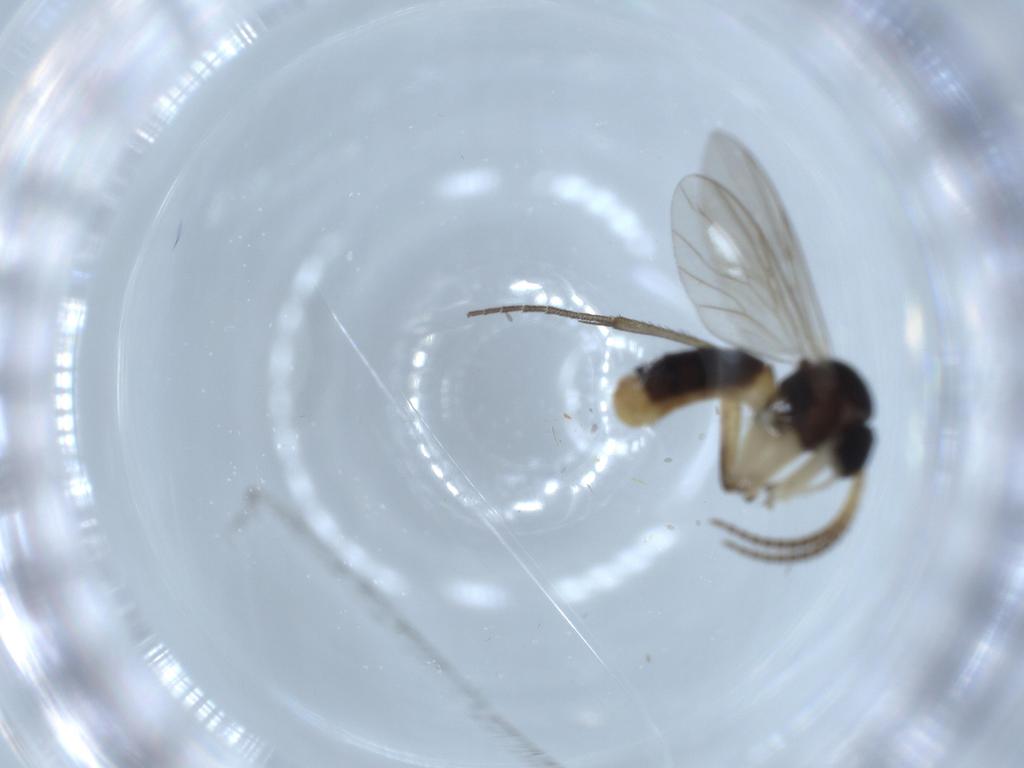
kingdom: Animalia
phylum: Arthropoda
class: Insecta
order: Diptera
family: Mycetophilidae
